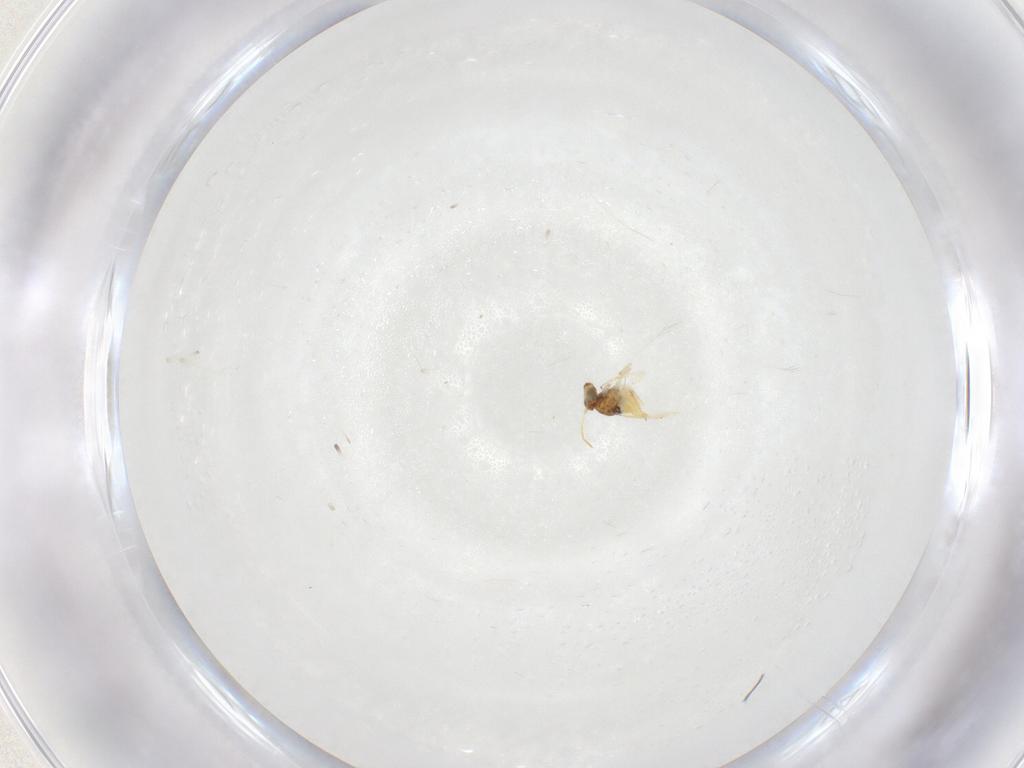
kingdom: Animalia
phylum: Arthropoda
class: Insecta
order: Hymenoptera
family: Aphelinidae
